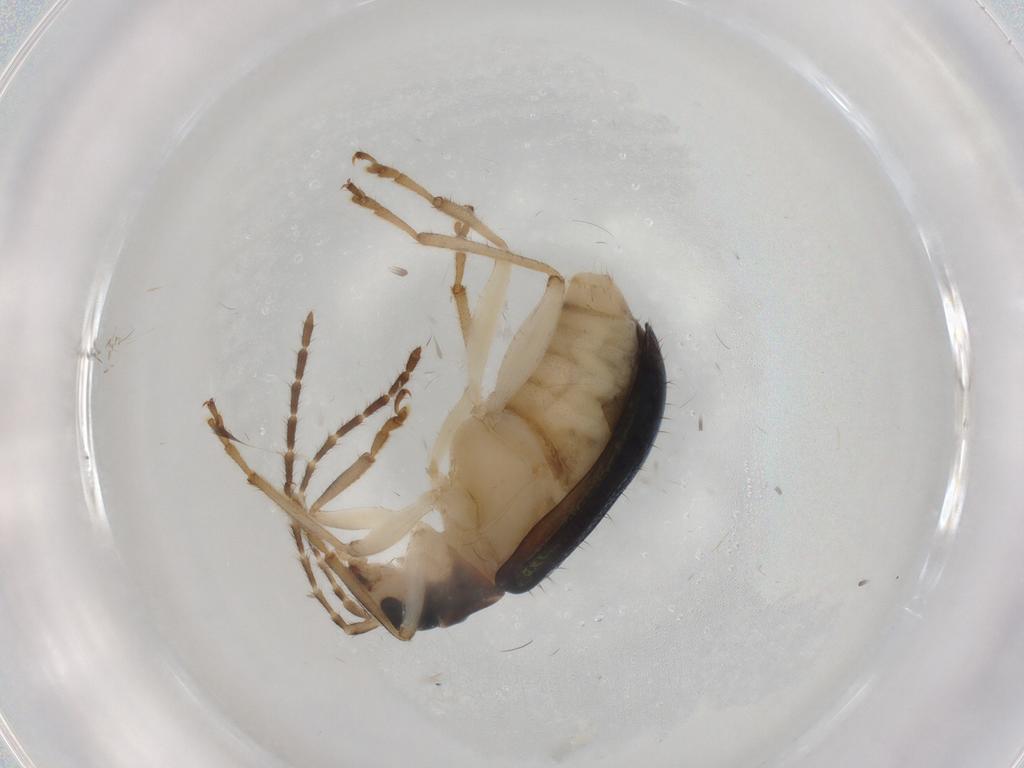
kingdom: Animalia
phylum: Arthropoda
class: Insecta
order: Coleoptera
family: Chrysomelidae
